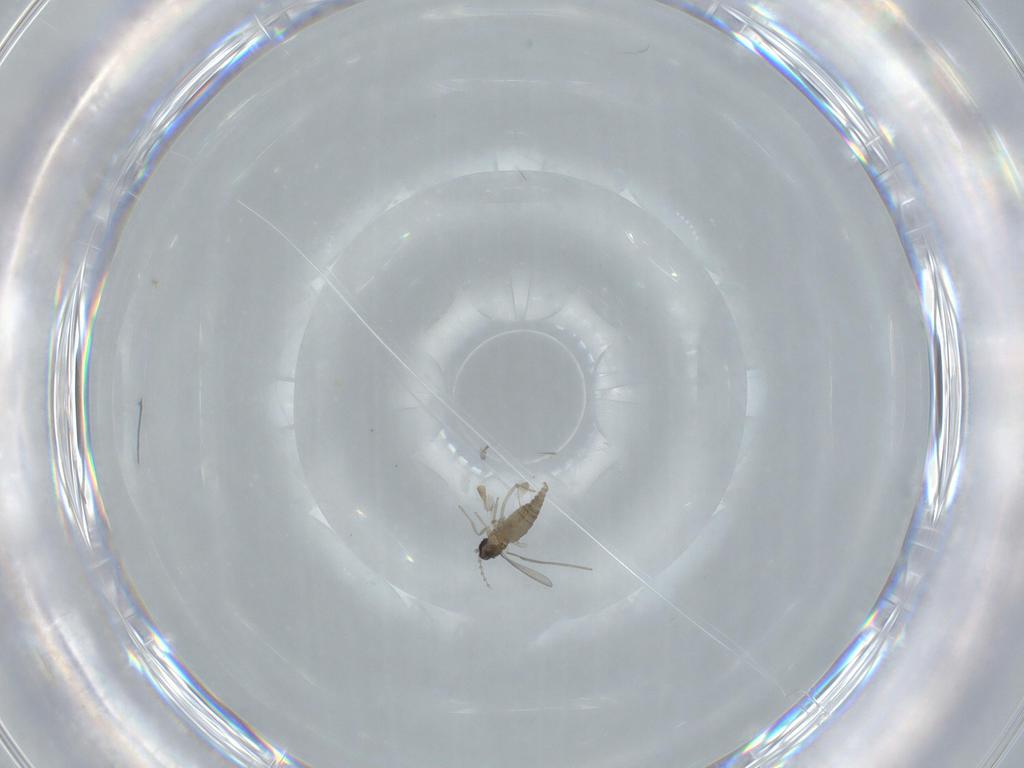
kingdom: Animalia
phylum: Arthropoda
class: Insecta
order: Diptera
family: Cecidomyiidae
